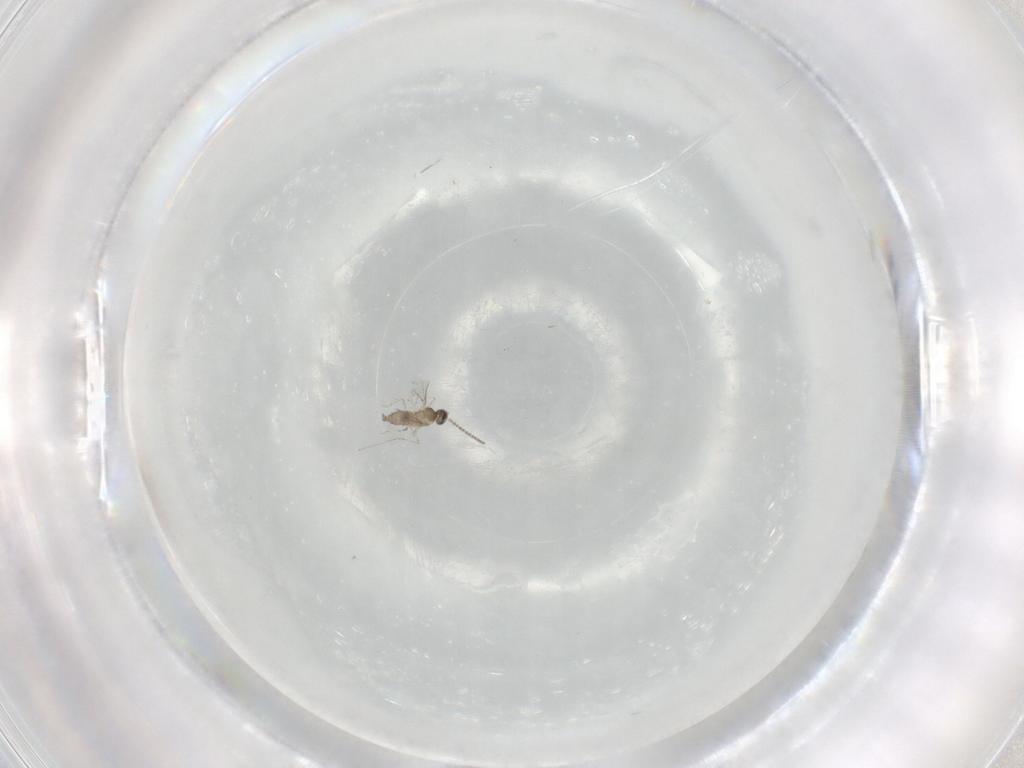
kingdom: Animalia
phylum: Arthropoda
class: Insecta
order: Diptera
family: Cecidomyiidae
